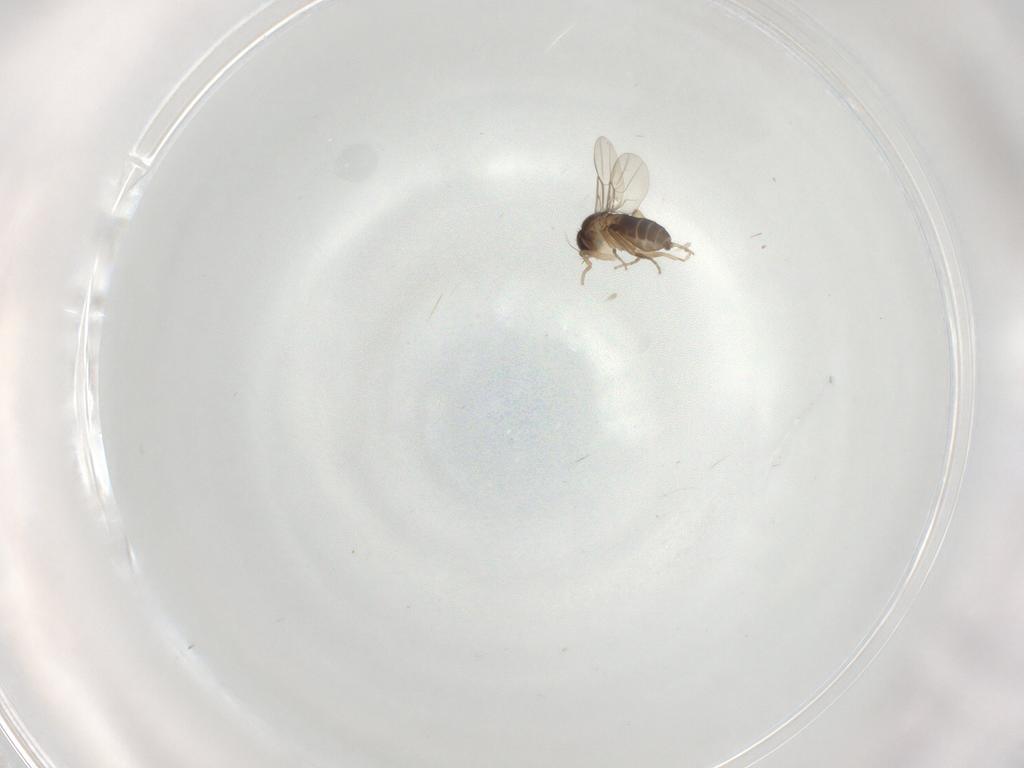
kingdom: Animalia
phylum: Arthropoda
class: Insecta
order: Diptera
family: Phoridae
